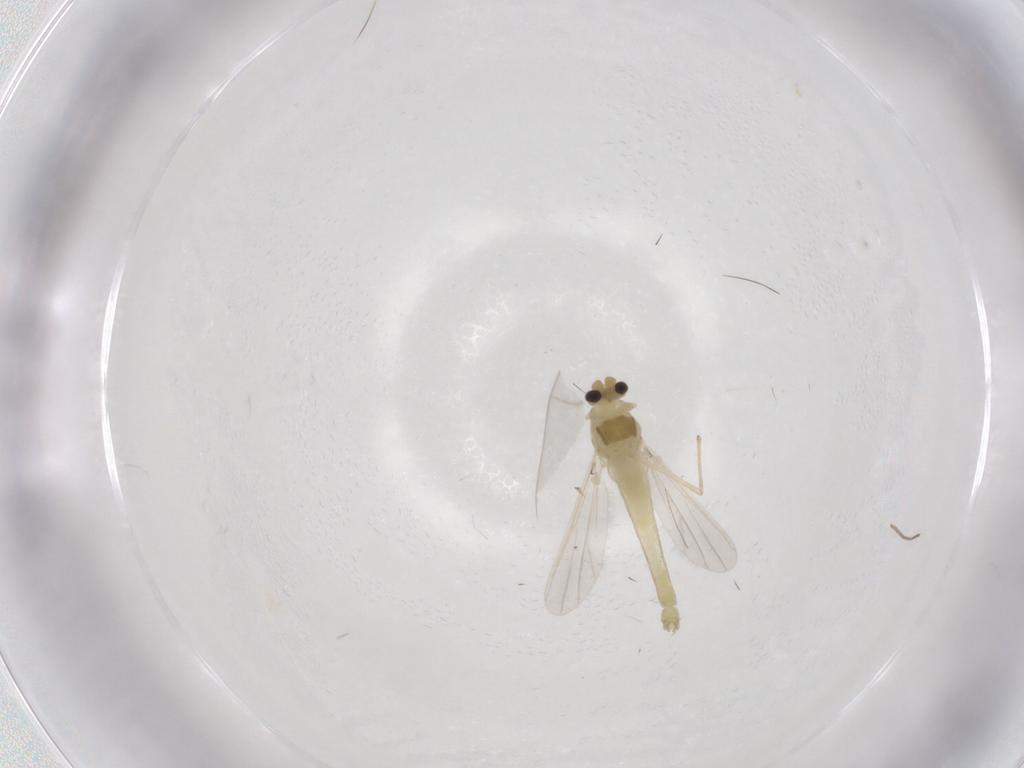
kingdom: Animalia
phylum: Arthropoda
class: Insecta
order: Diptera
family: Chironomidae
